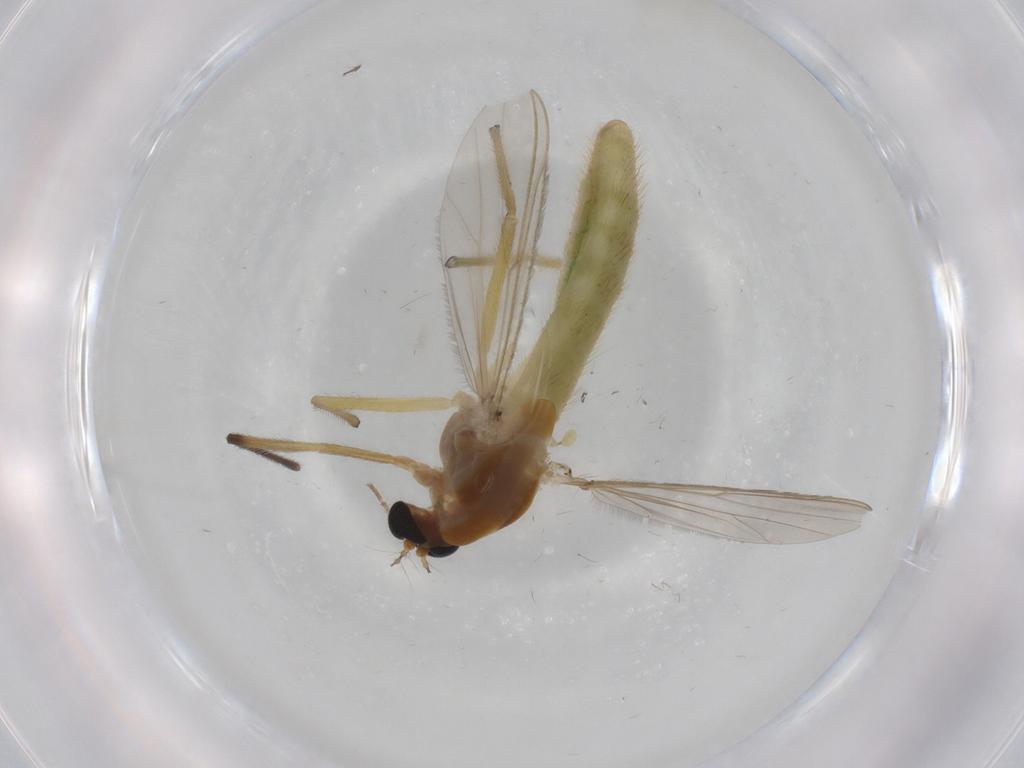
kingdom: Animalia
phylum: Arthropoda
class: Insecta
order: Diptera
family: Chironomidae
